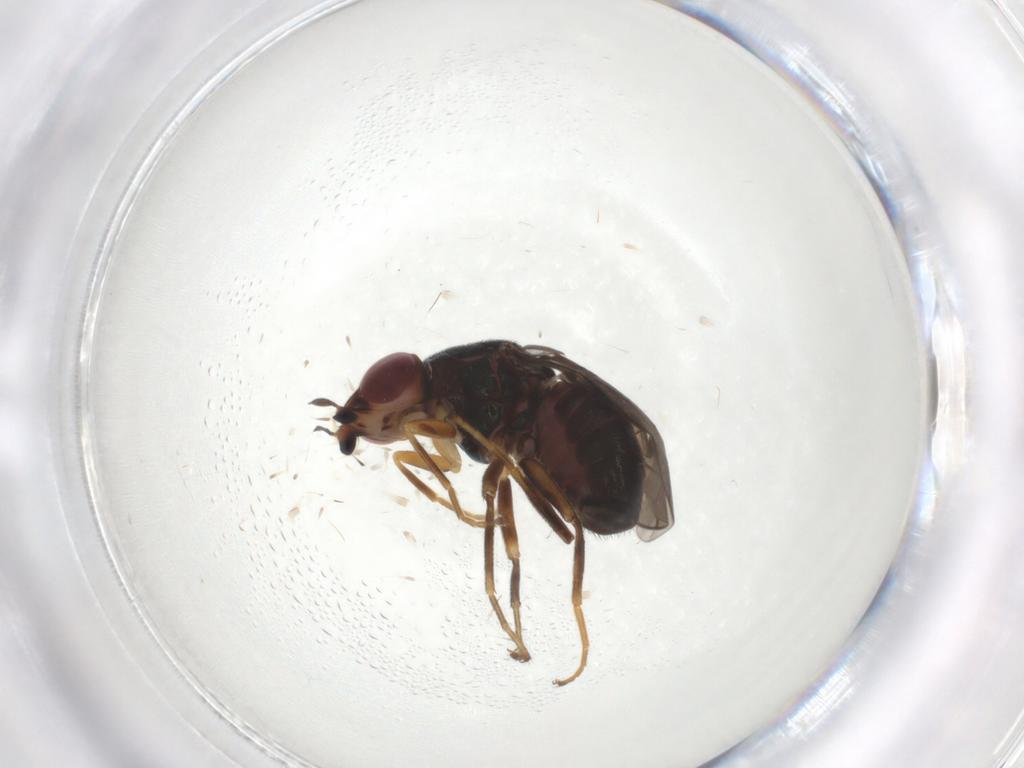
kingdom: Animalia
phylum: Arthropoda
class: Insecta
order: Diptera
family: Chloropidae
